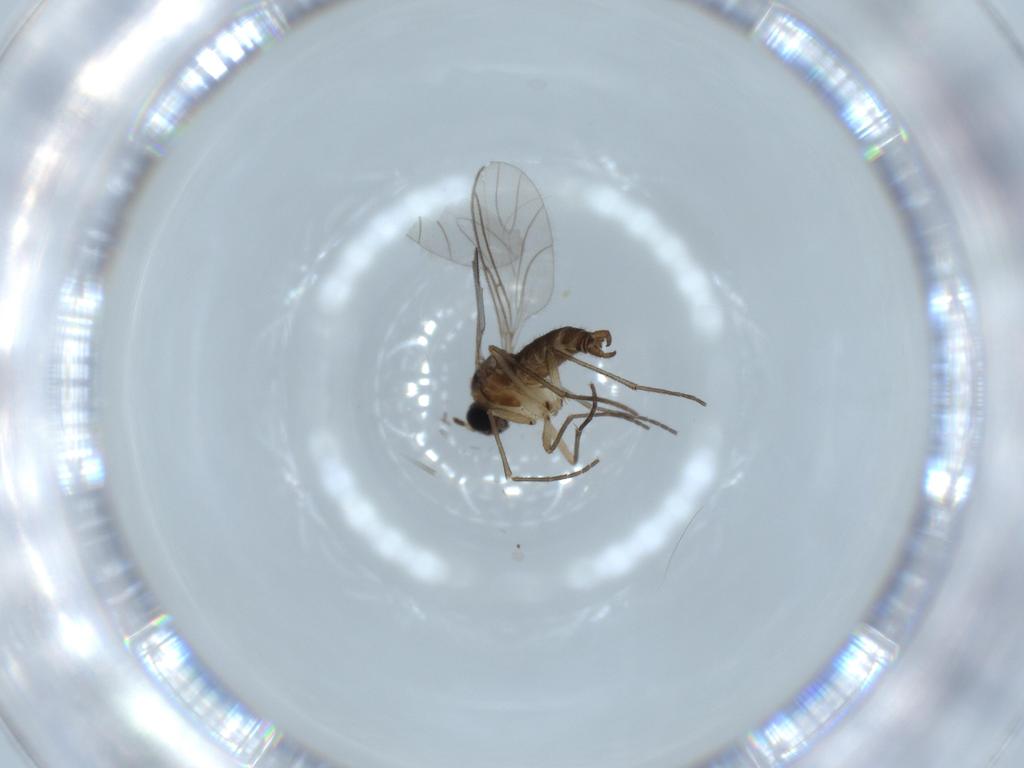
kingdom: Animalia
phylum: Arthropoda
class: Insecta
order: Diptera
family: Sciaridae
